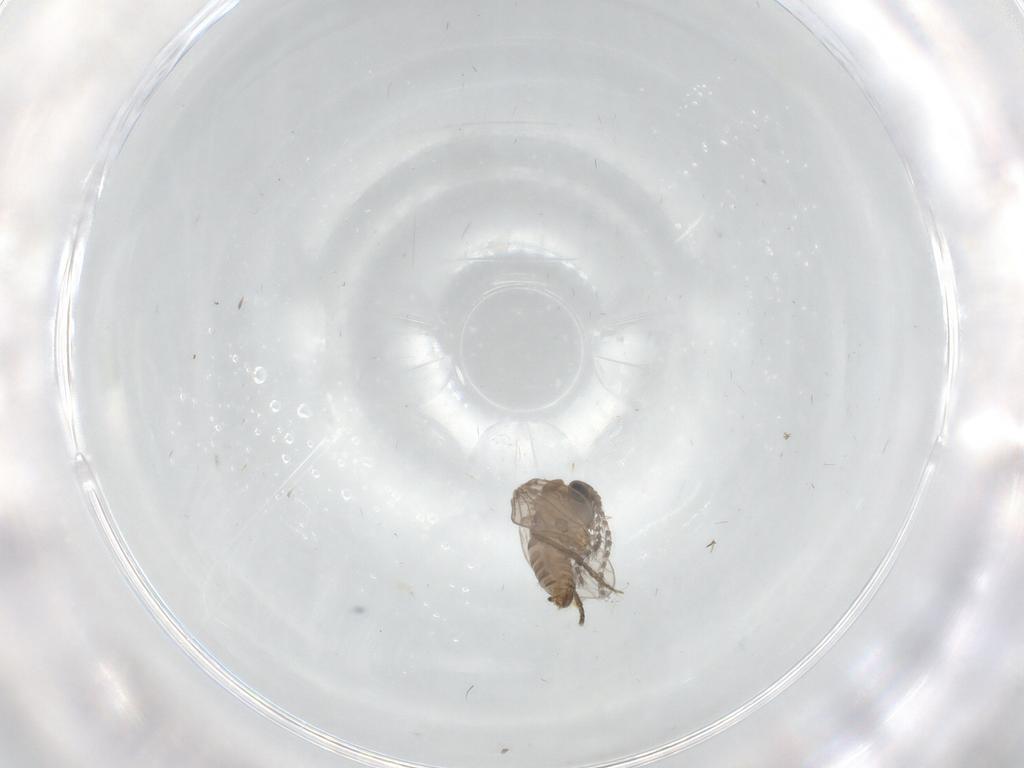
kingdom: Animalia
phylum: Arthropoda
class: Insecta
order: Diptera
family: Psychodidae
